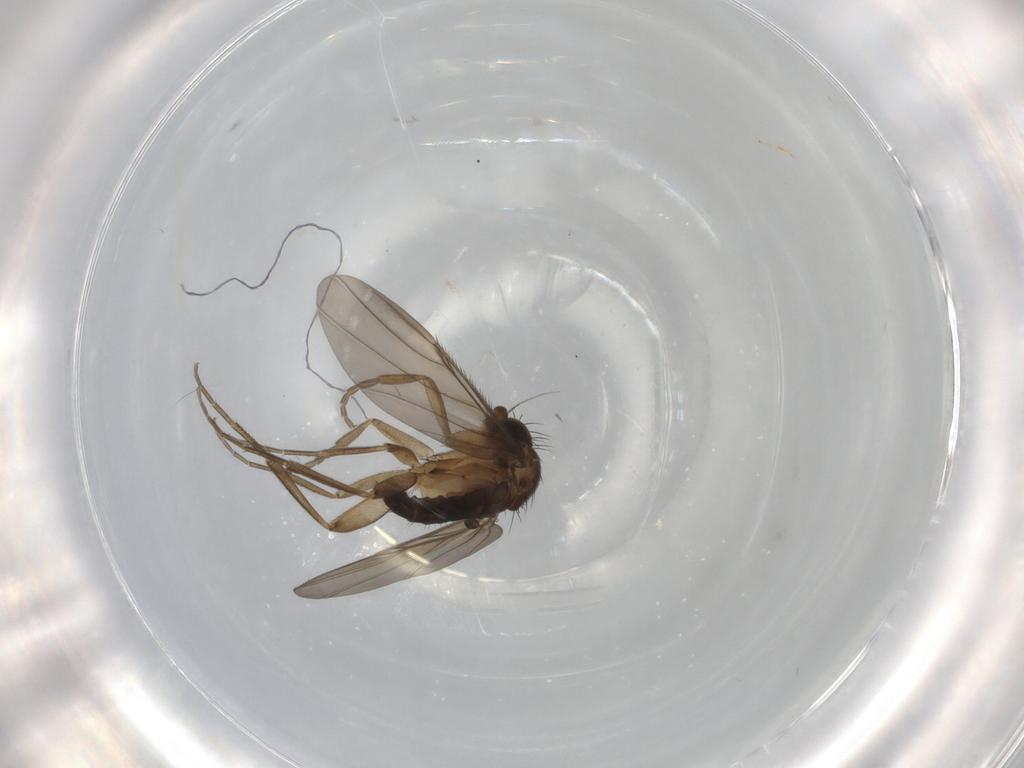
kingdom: Animalia
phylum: Arthropoda
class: Insecta
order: Diptera
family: Phoridae
